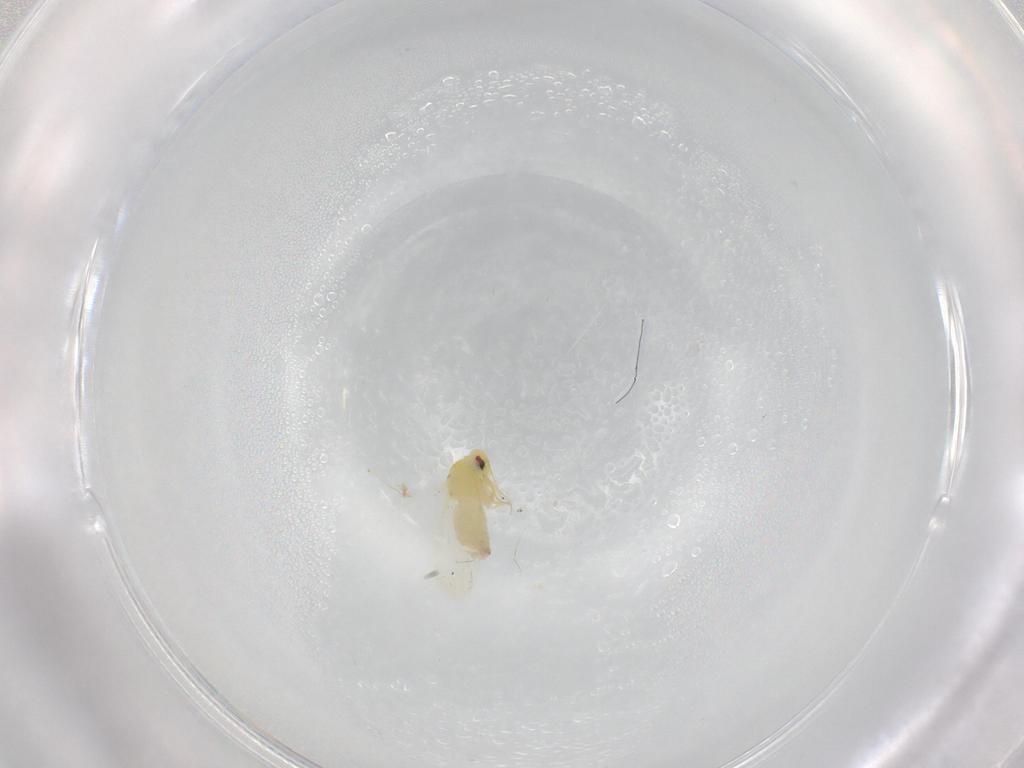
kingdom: Animalia
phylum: Arthropoda
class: Insecta
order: Hemiptera
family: Aleyrodidae
